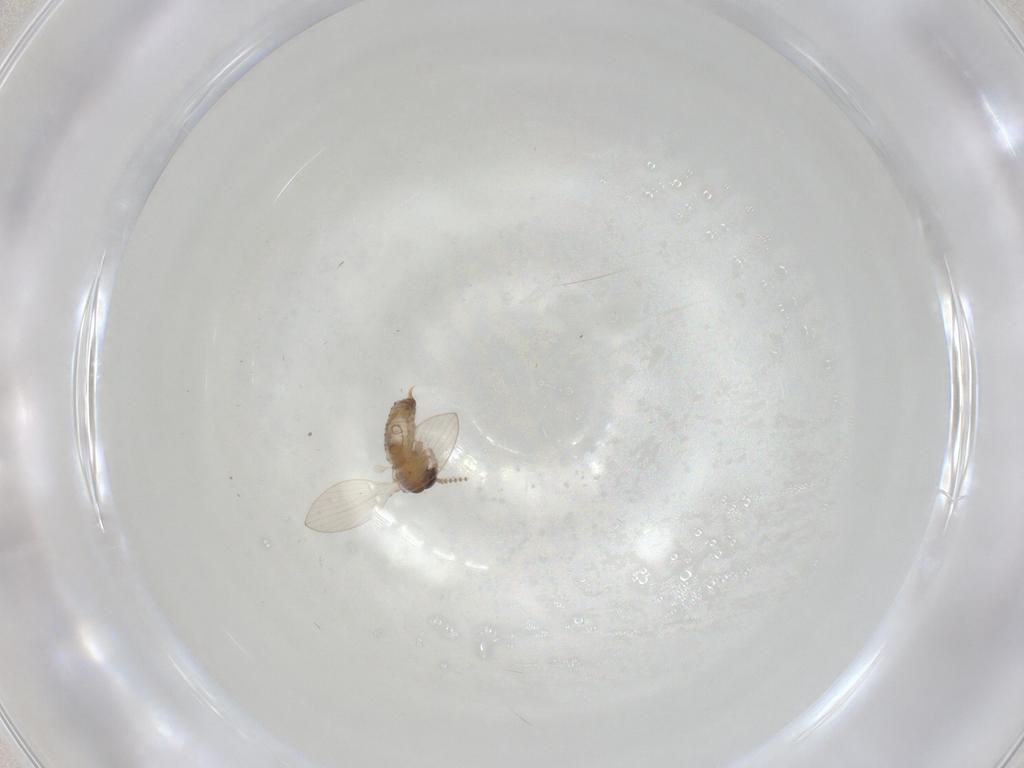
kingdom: Animalia
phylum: Arthropoda
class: Insecta
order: Diptera
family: Psychodidae
